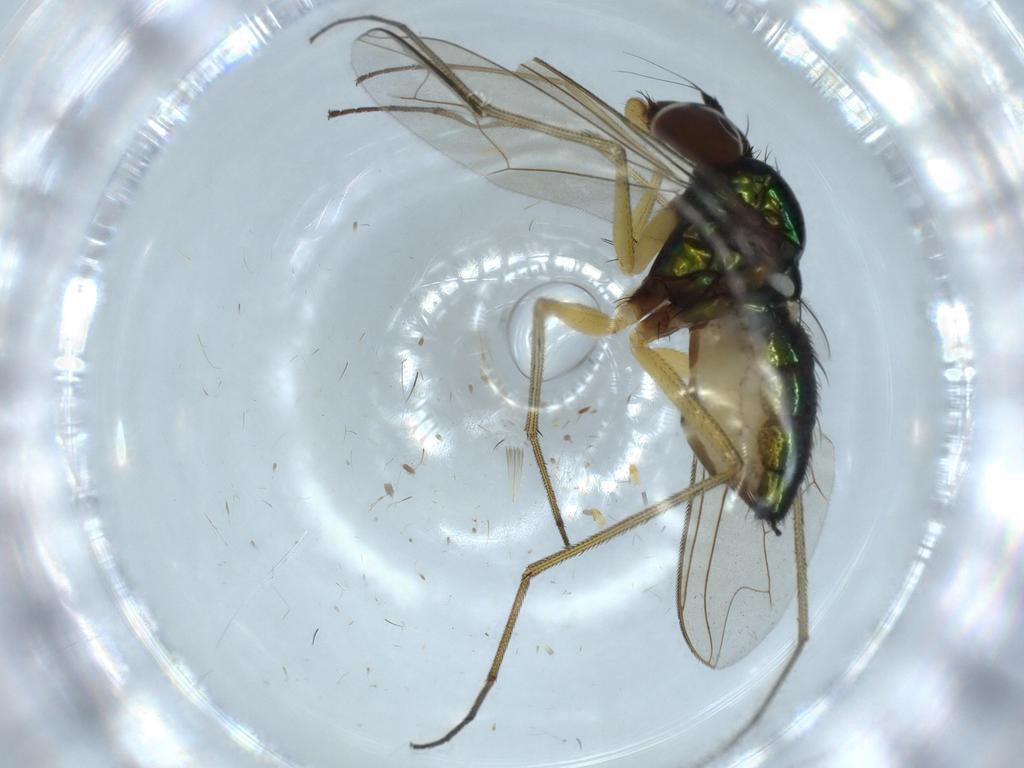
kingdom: Animalia
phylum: Arthropoda
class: Insecta
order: Diptera
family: Dolichopodidae
